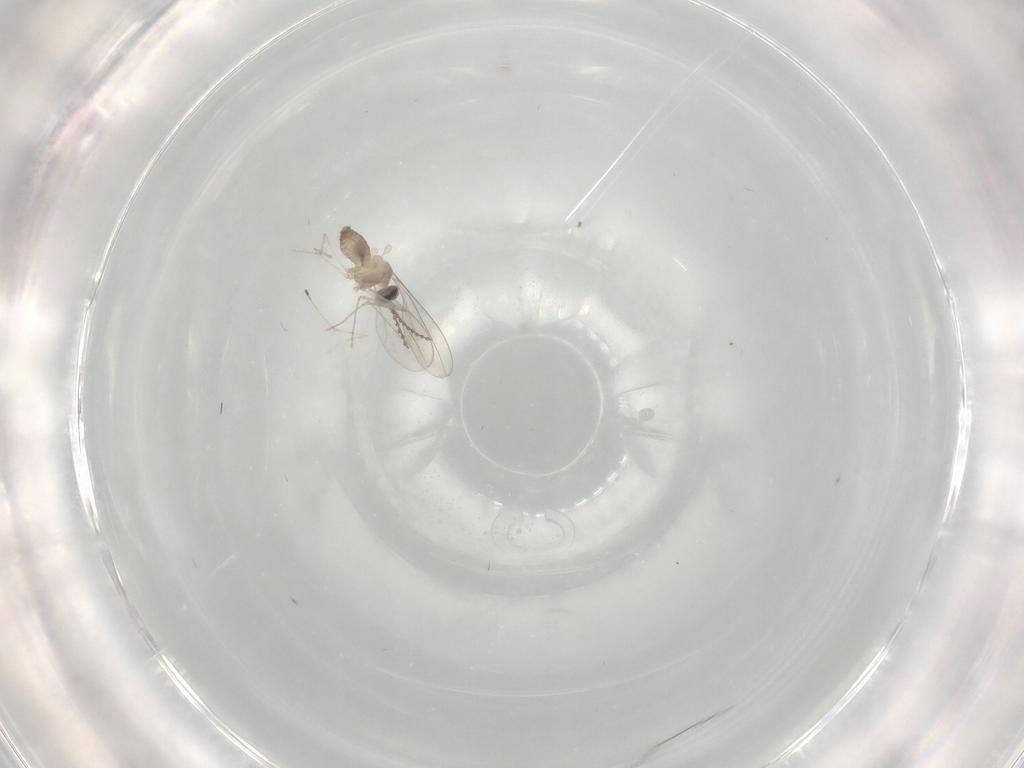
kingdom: Animalia
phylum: Arthropoda
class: Insecta
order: Diptera
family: Cecidomyiidae
